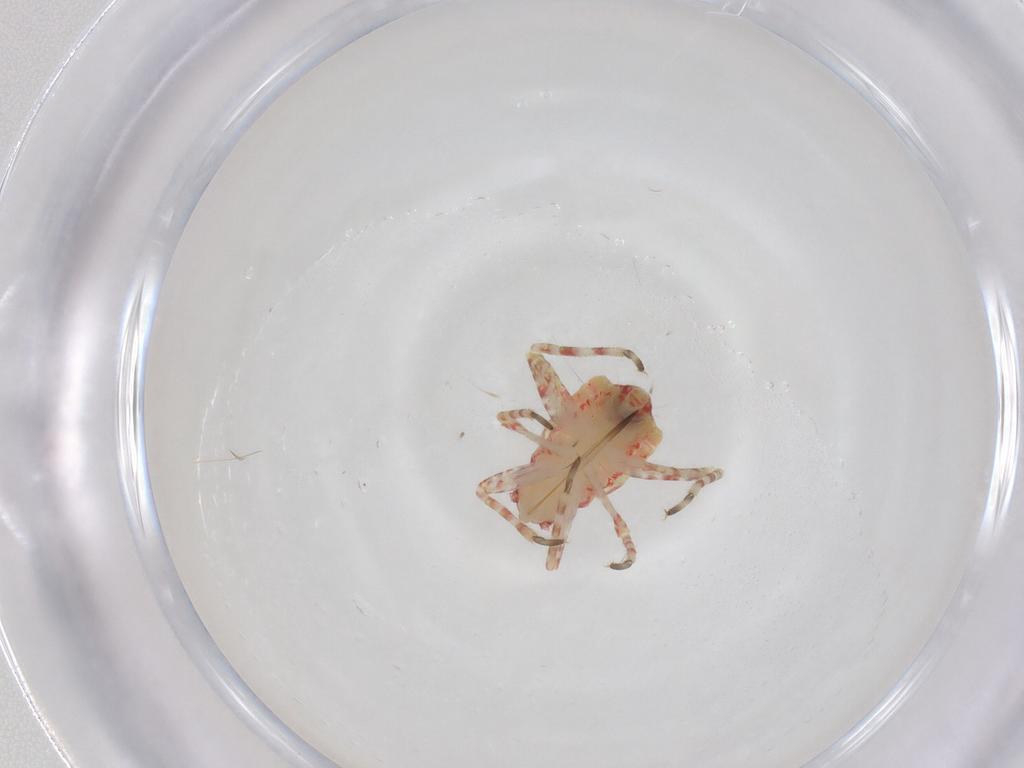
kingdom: Animalia
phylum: Arthropoda
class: Insecta
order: Hemiptera
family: Miridae
